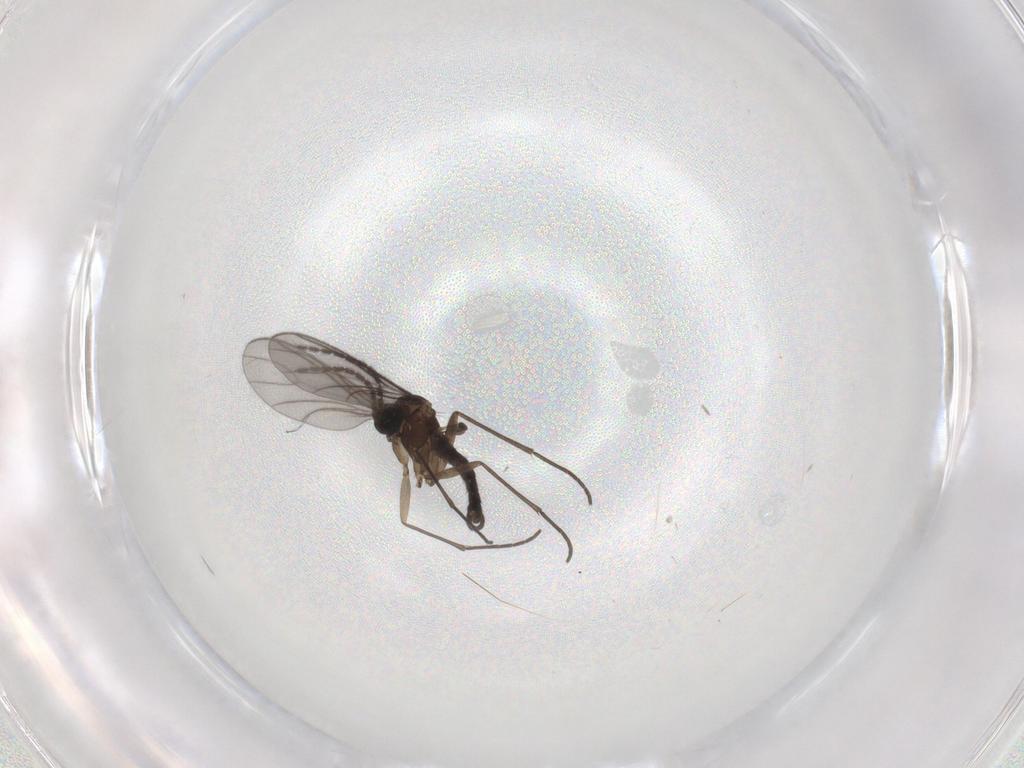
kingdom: Animalia
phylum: Arthropoda
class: Insecta
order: Diptera
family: Sciaridae
